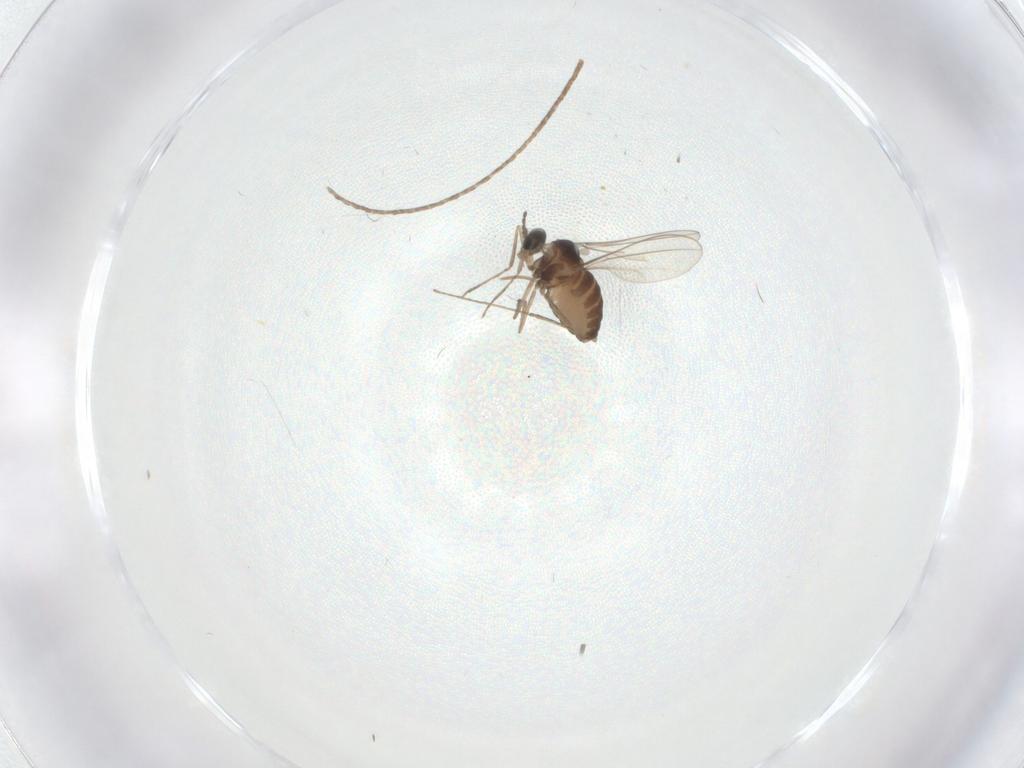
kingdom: Animalia
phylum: Arthropoda
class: Insecta
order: Diptera
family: Cecidomyiidae
